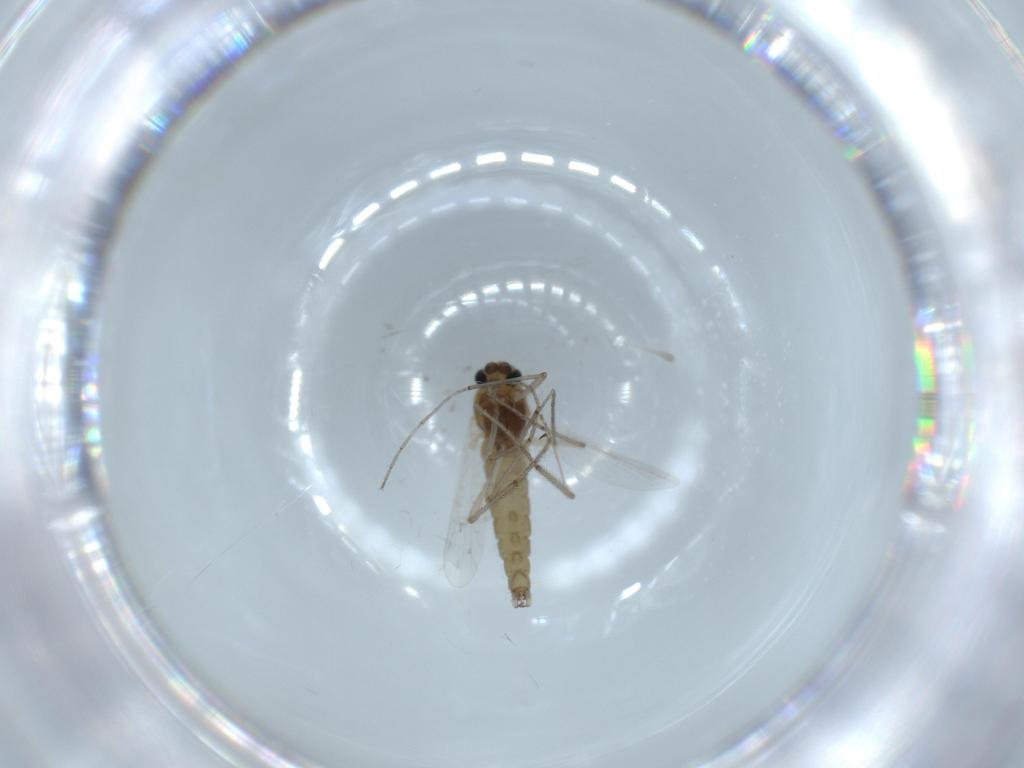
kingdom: Animalia
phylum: Arthropoda
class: Insecta
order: Diptera
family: Chironomidae
